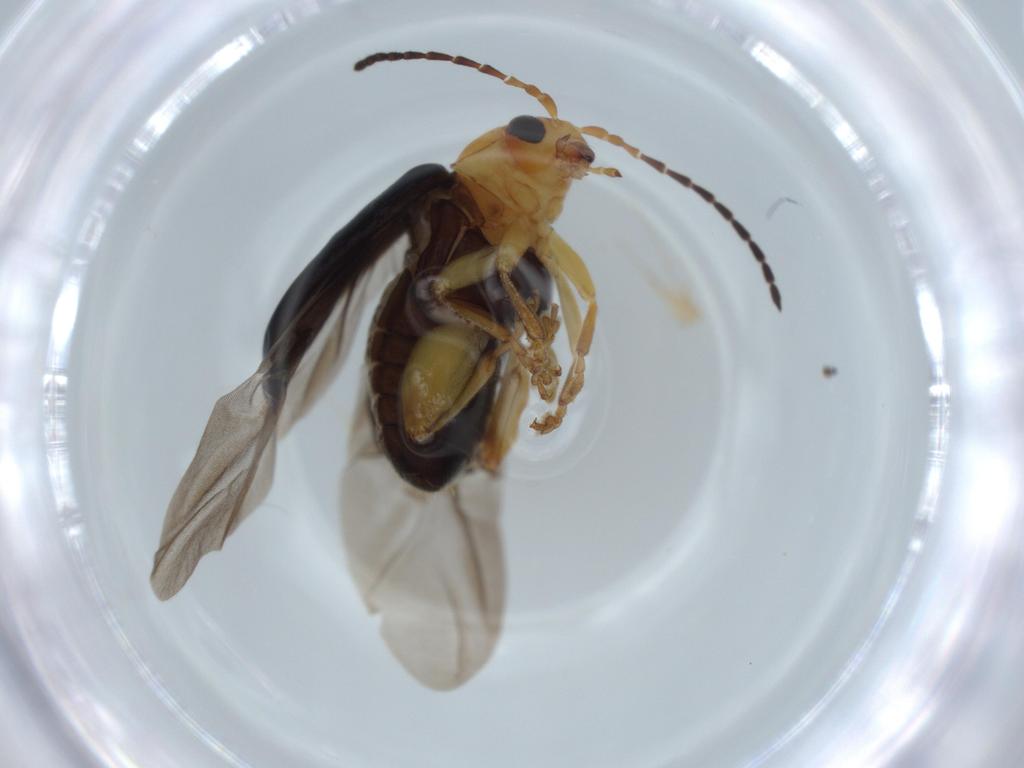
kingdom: Animalia
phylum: Arthropoda
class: Insecta
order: Coleoptera
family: Chrysomelidae
